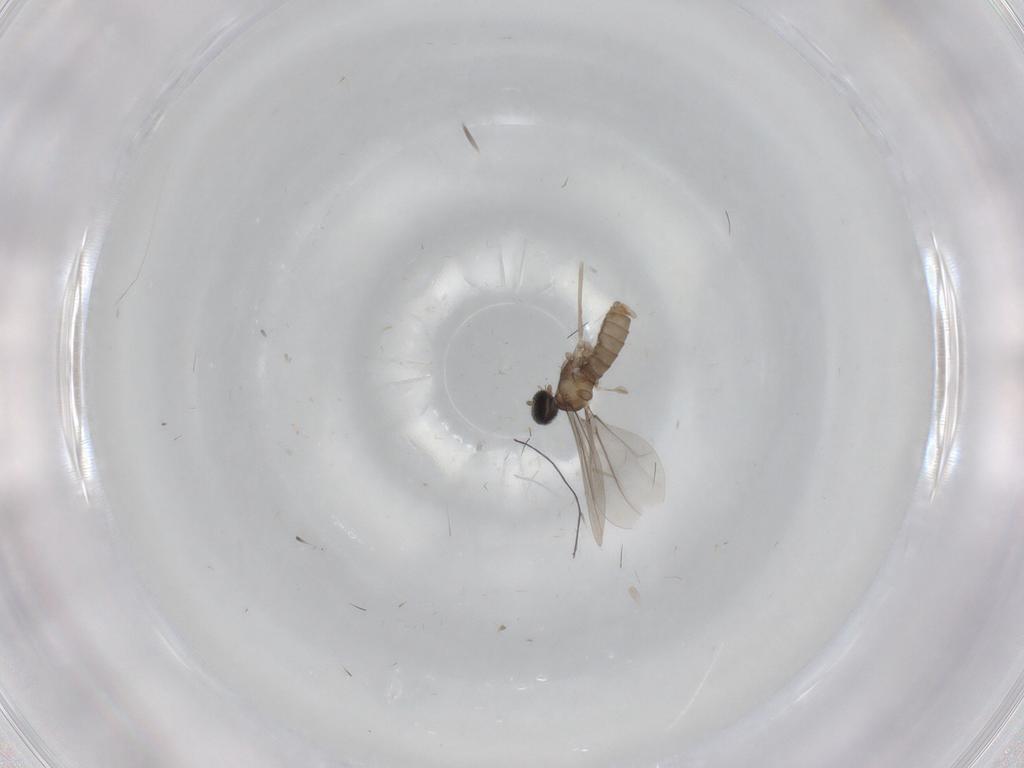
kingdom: Animalia
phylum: Arthropoda
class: Insecta
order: Diptera
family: Cecidomyiidae
